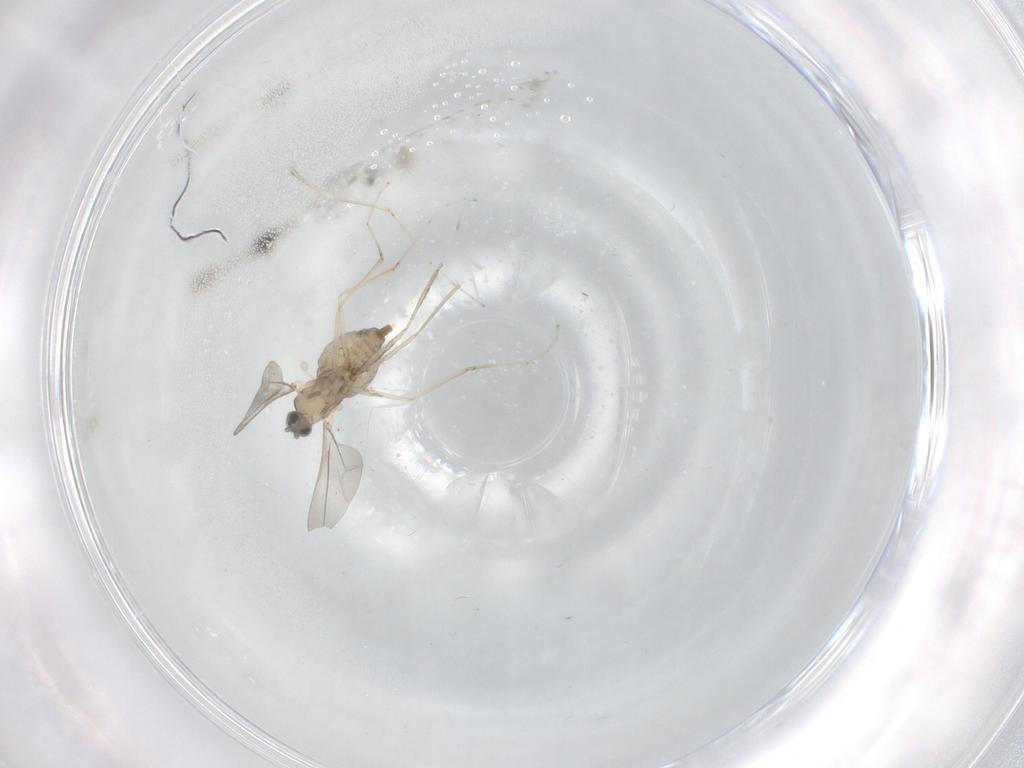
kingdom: Animalia
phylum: Arthropoda
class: Insecta
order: Diptera
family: Cecidomyiidae
